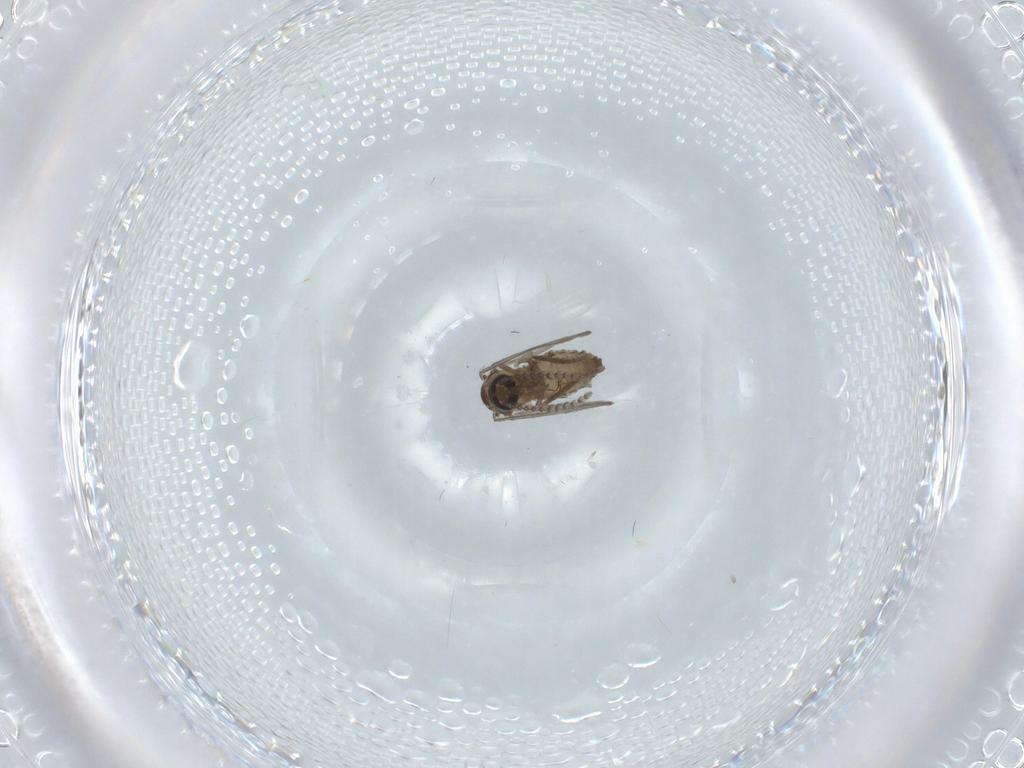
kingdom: Animalia
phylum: Arthropoda
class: Insecta
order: Diptera
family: Psychodidae
